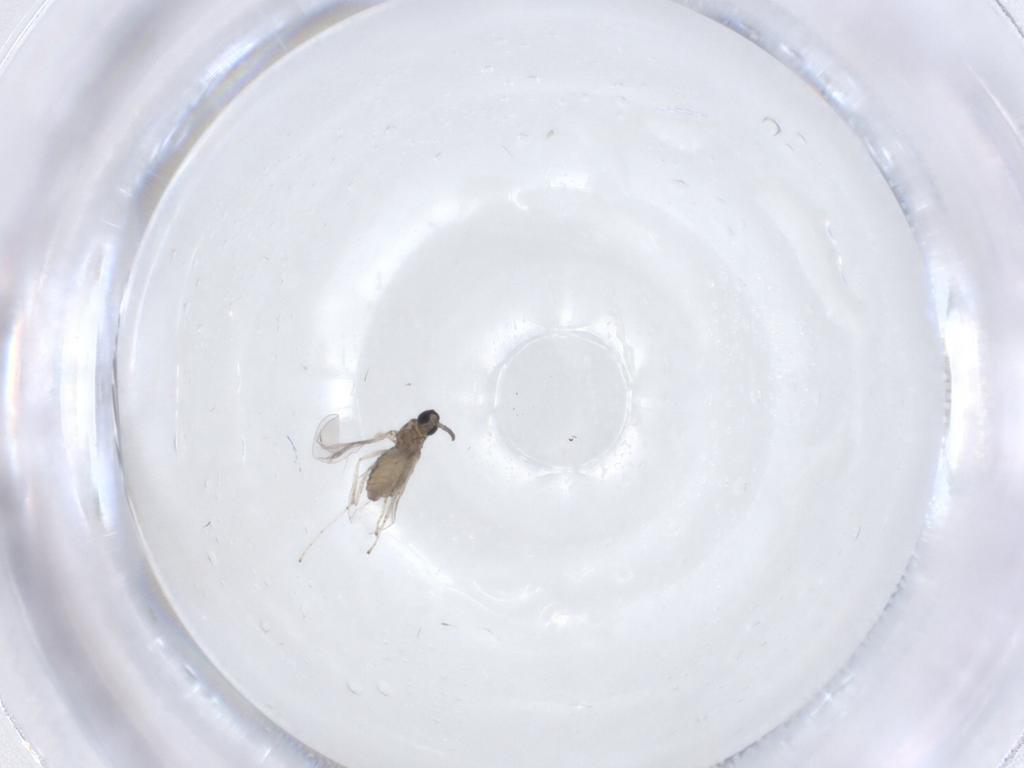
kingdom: Animalia
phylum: Arthropoda
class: Insecta
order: Diptera
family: Cecidomyiidae
